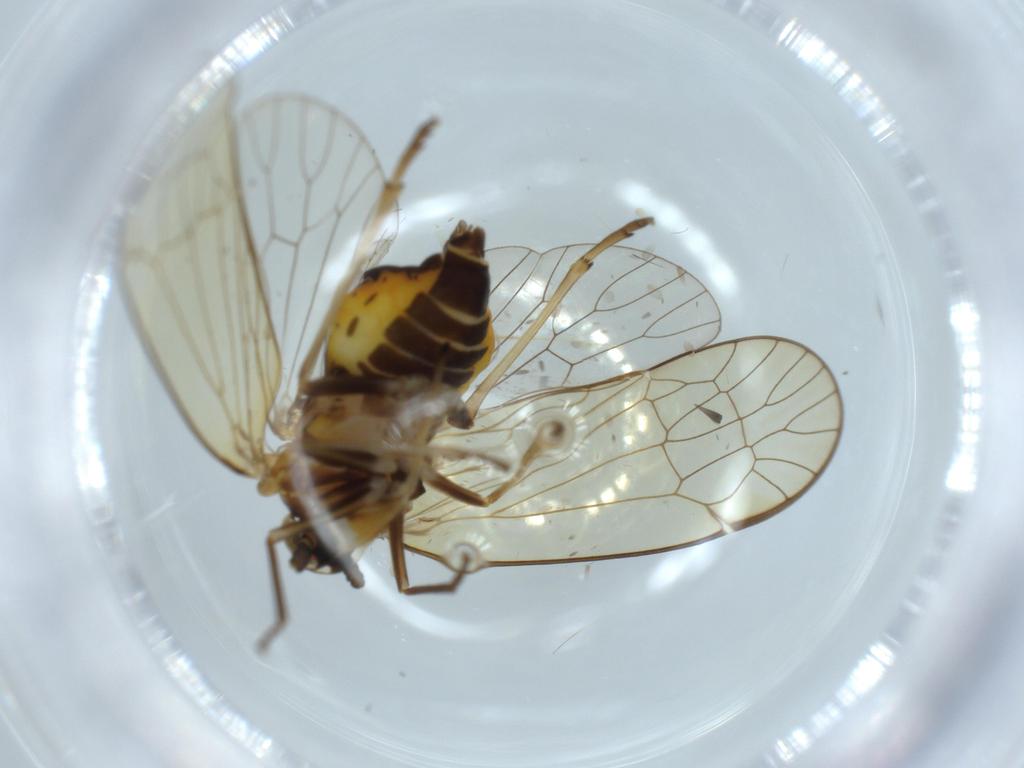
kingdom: Animalia
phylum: Arthropoda
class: Insecta
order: Hemiptera
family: Kinnaridae
